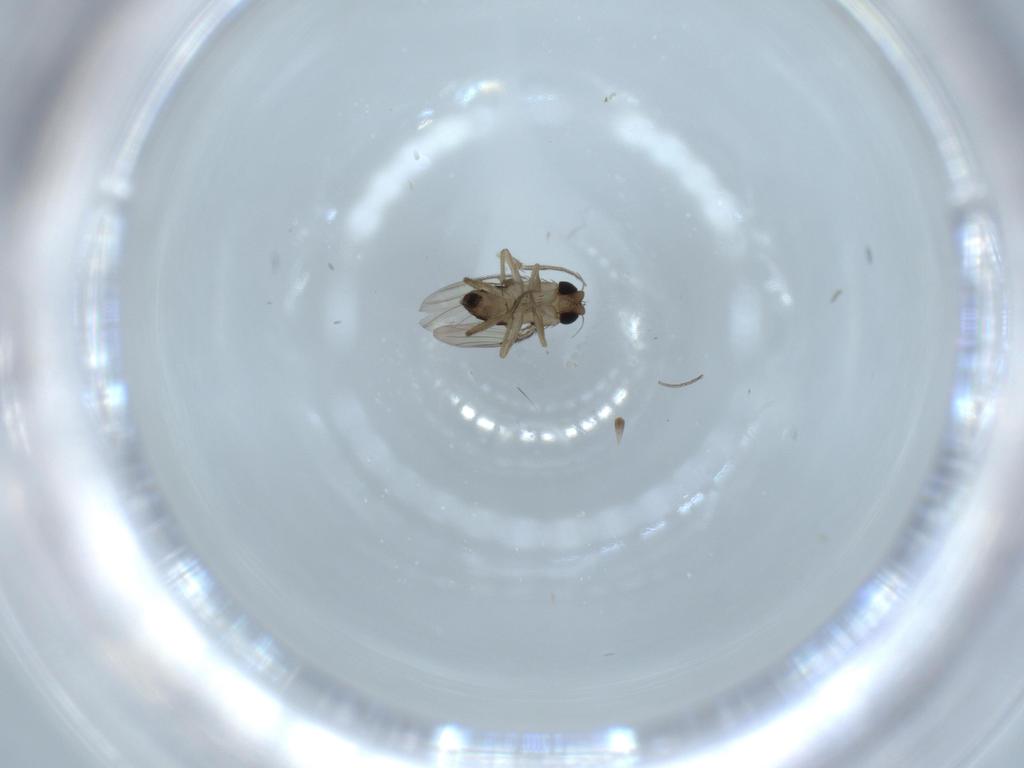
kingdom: Animalia
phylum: Arthropoda
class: Insecta
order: Diptera
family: Phoridae
